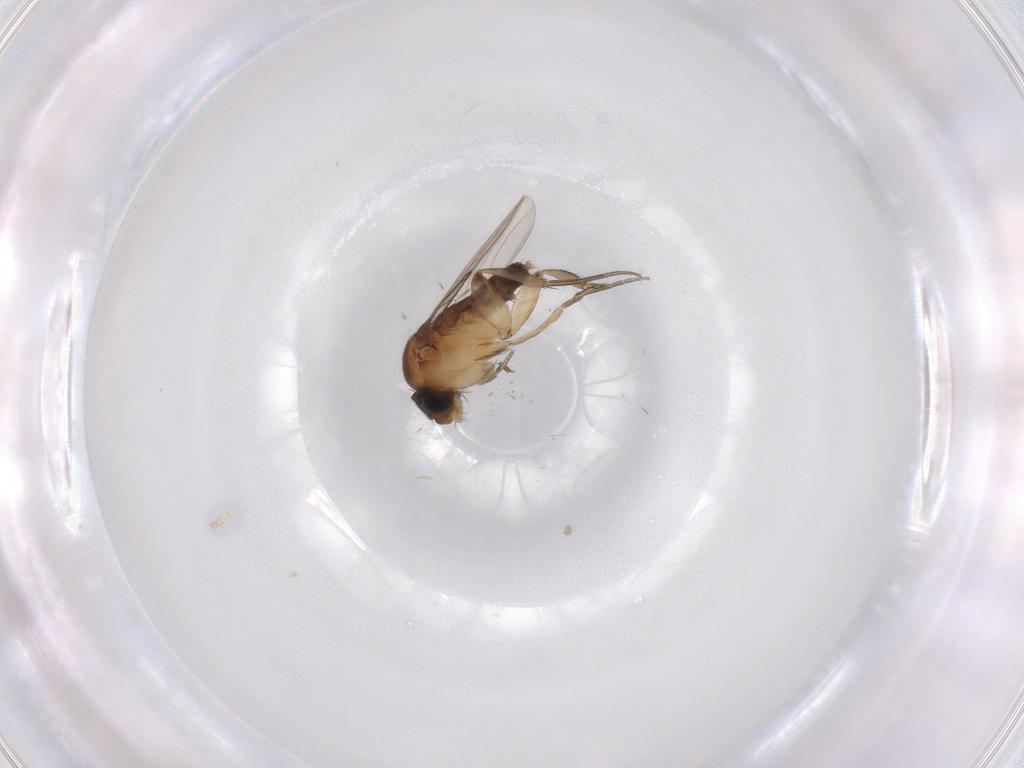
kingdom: Animalia
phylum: Arthropoda
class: Insecta
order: Diptera
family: Phoridae
